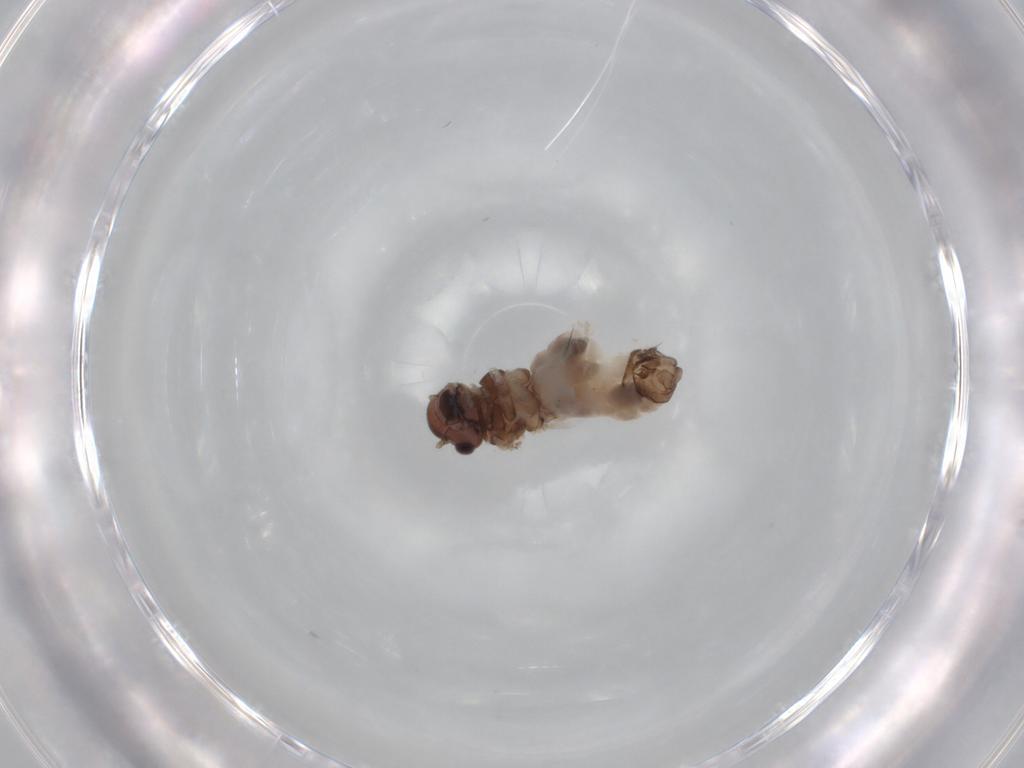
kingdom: Animalia
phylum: Arthropoda
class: Insecta
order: Psocodea
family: Peripsocidae
